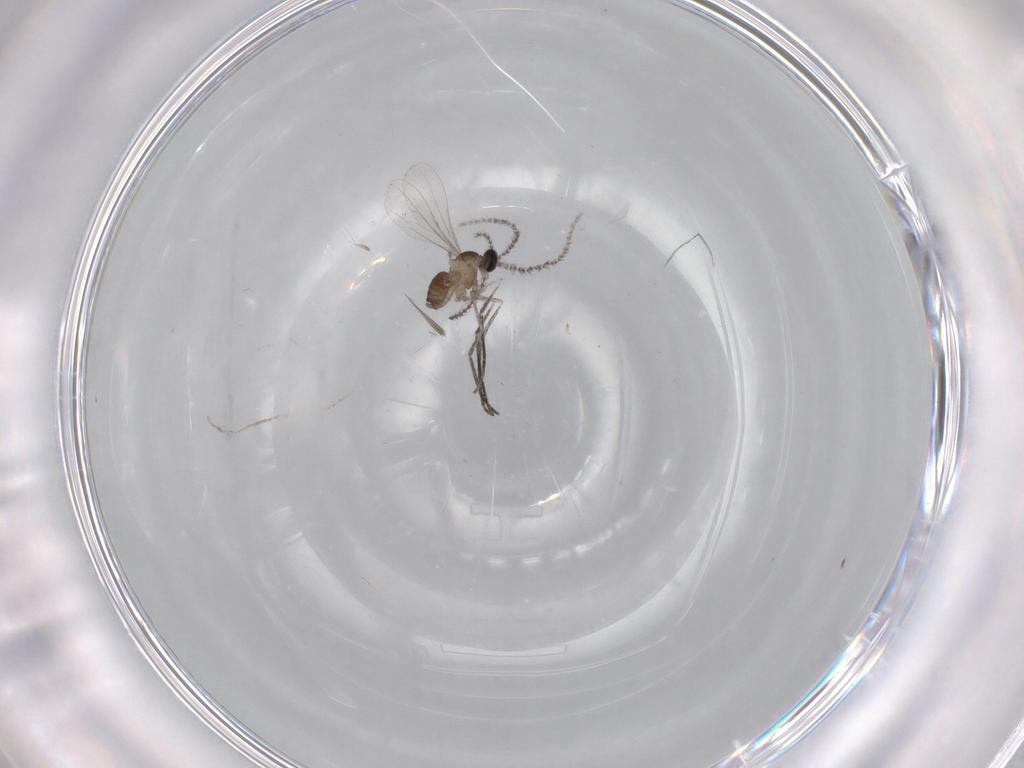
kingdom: Animalia
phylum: Arthropoda
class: Insecta
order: Diptera
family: Cecidomyiidae
